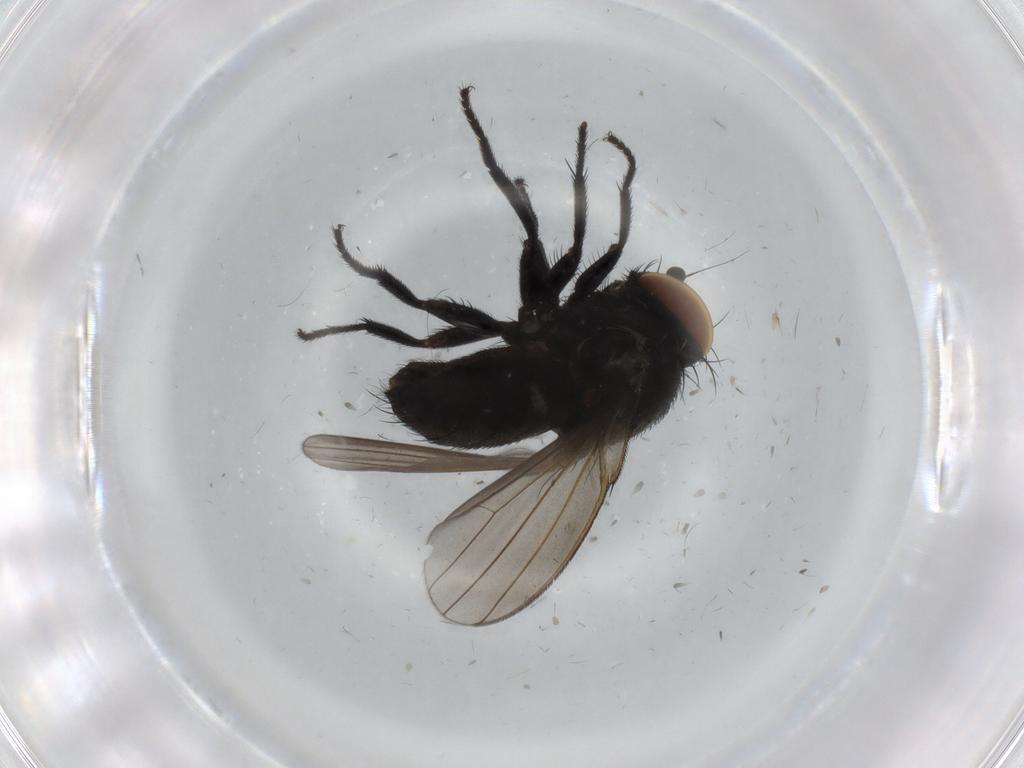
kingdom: Animalia
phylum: Arthropoda
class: Insecta
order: Diptera
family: Milichiidae
